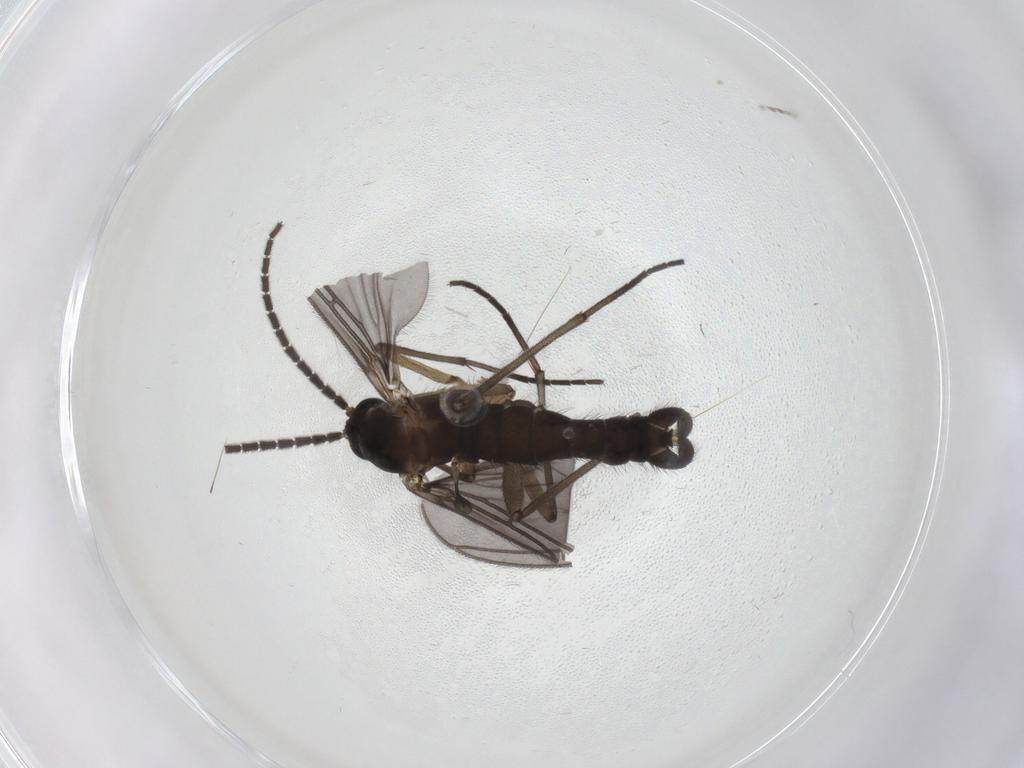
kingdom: Animalia
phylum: Arthropoda
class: Insecta
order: Diptera
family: Sciaridae
